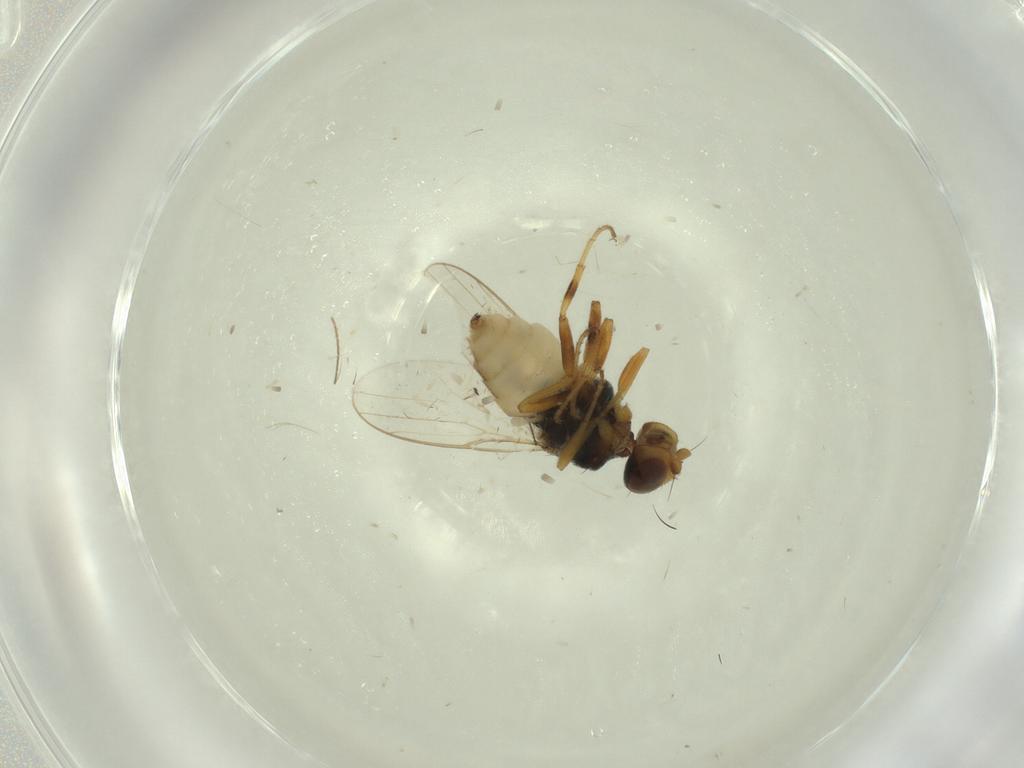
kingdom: Animalia
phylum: Arthropoda
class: Insecta
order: Diptera
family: Chloropidae
